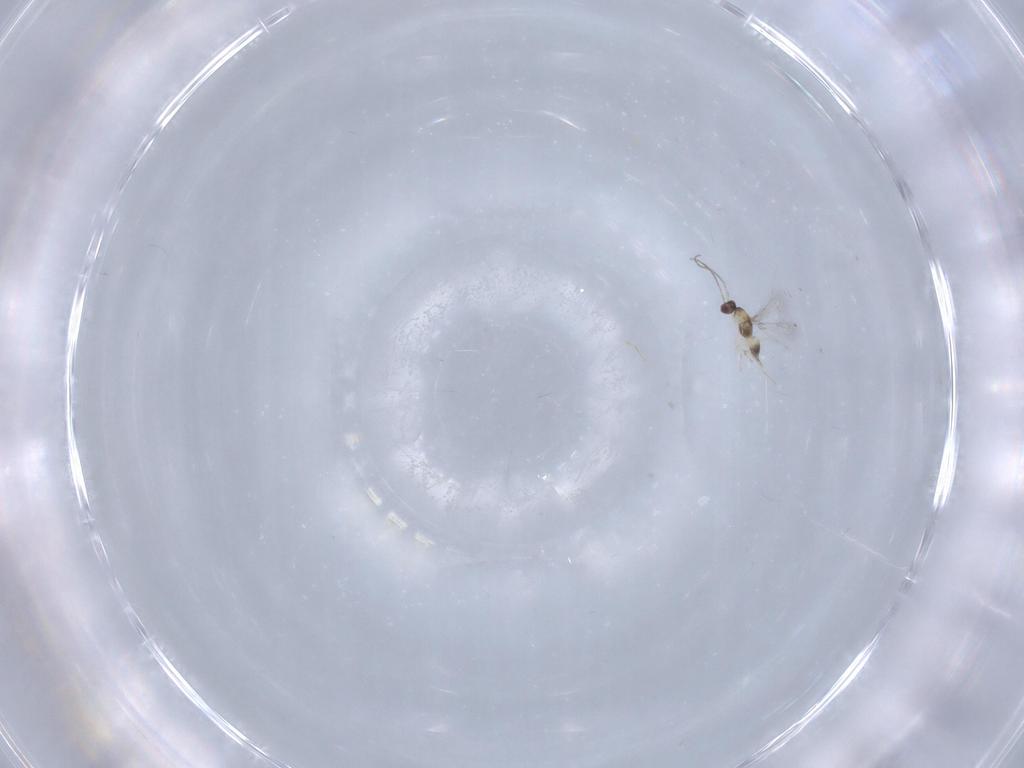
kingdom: Animalia
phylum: Arthropoda
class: Insecta
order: Hymenoptera
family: Mymaridae
